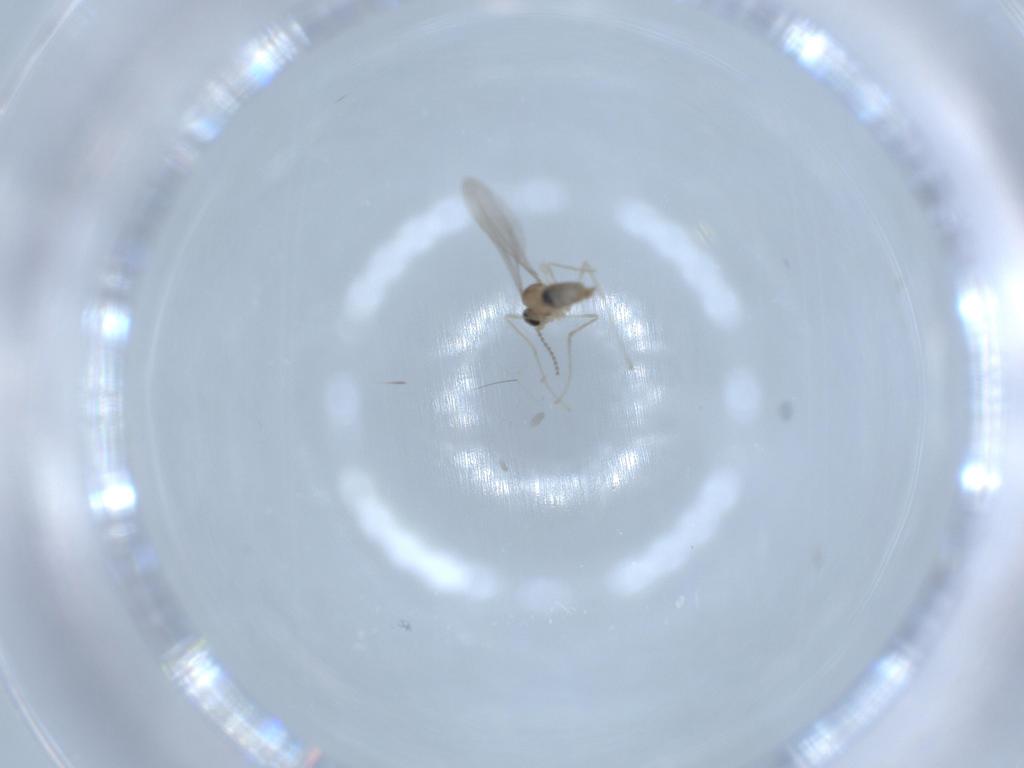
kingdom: Animalia
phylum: Arthropoda
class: Insecta
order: Diptera
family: Cecidomyiidae
